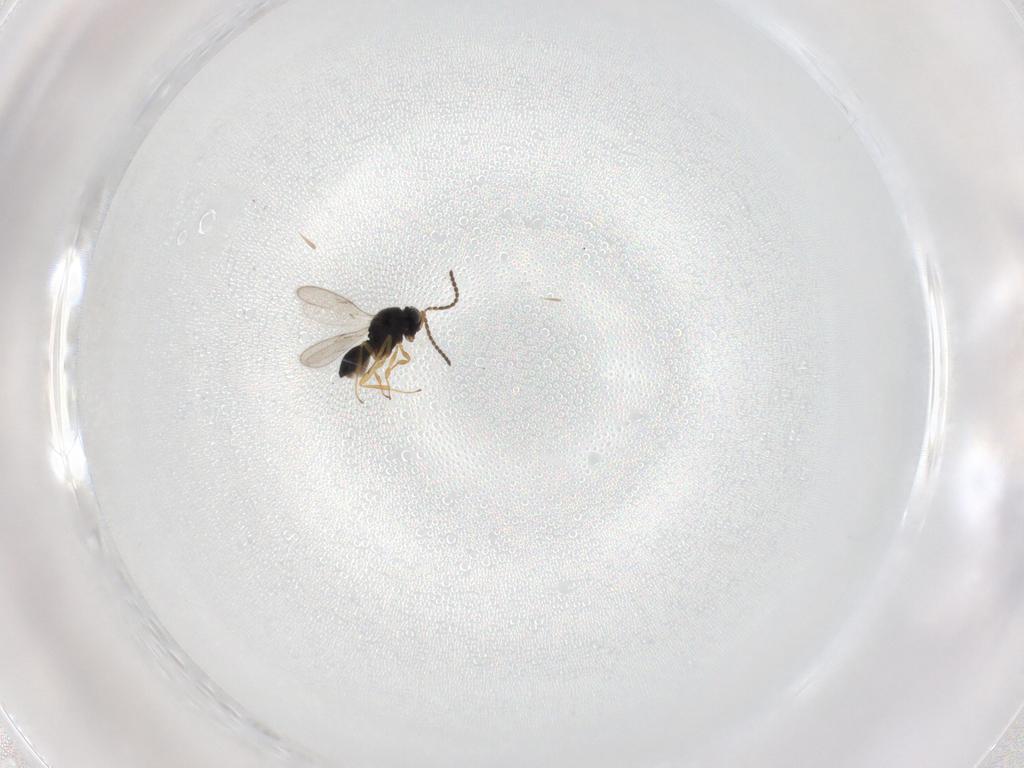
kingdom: Animalia
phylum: Arthropoda
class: Insecta
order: Hymenoptera
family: Scelionidae
